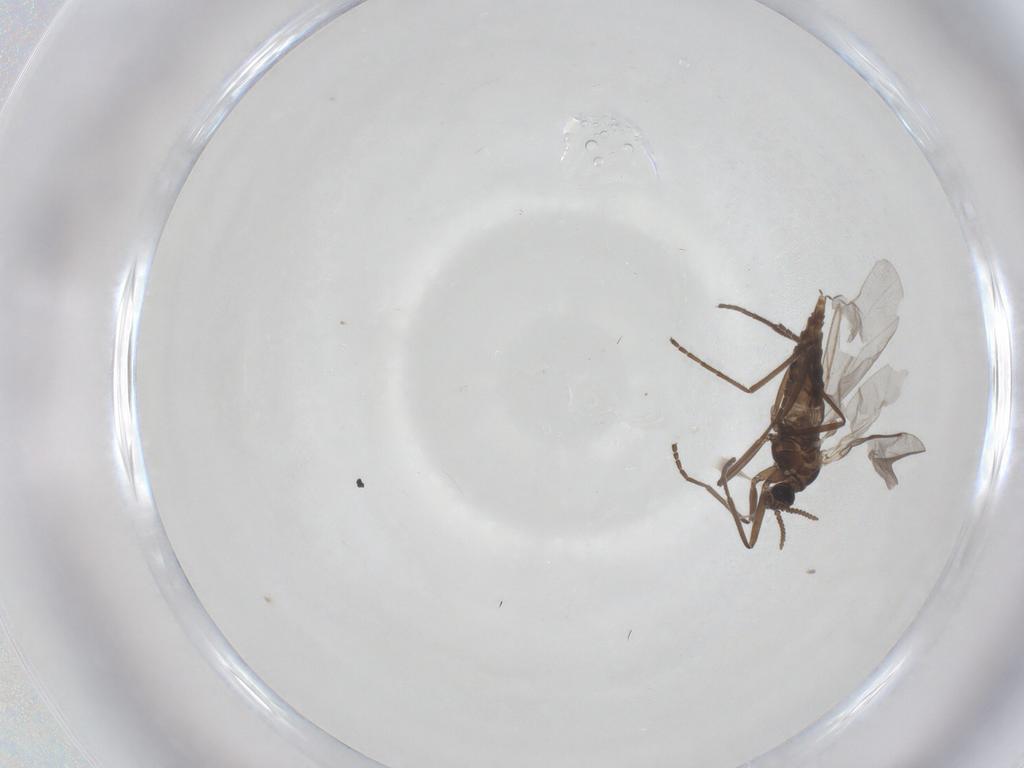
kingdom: Animalia
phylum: Arthropoda
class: Insecta
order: Diptera
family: Cecidomyiidae
